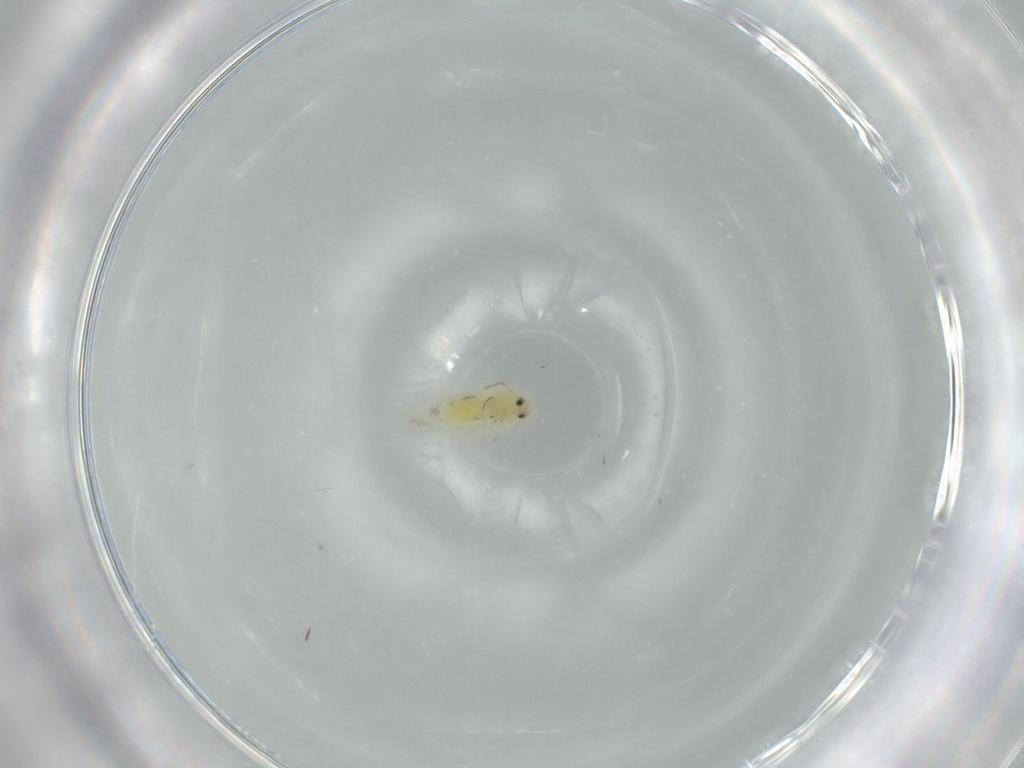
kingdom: Animalia
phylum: Arthropoda
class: Insecta
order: Hemiptera
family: Aleyrodidae
